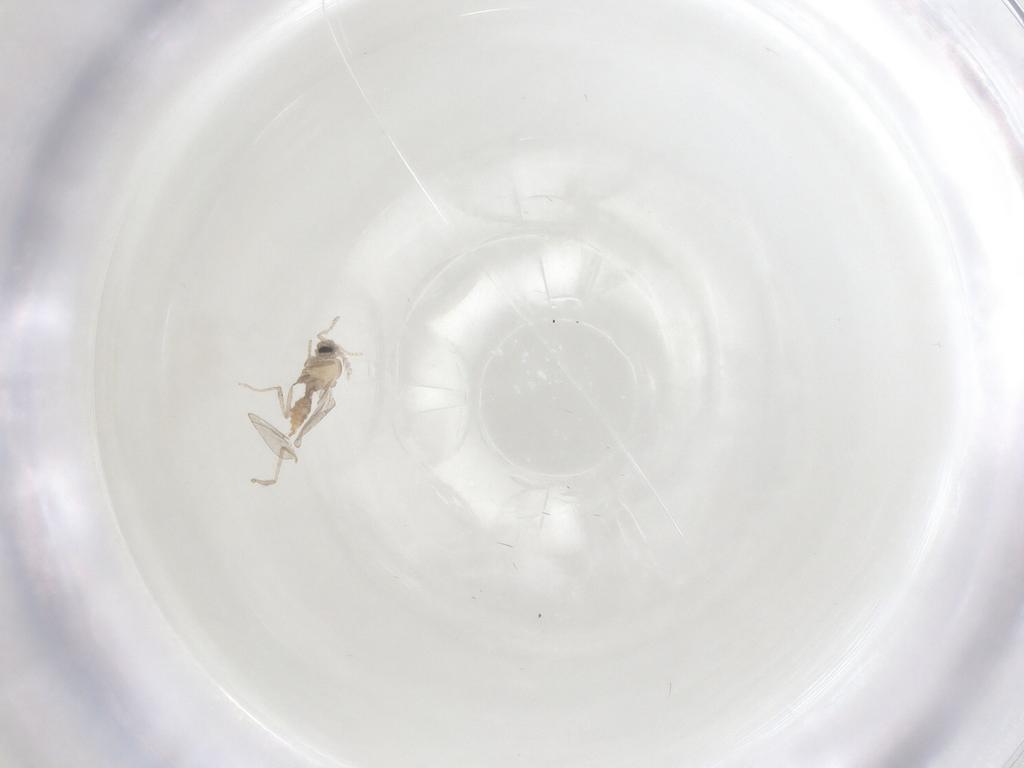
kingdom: Animalia
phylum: Arthropoda
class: Insecta
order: Diptera
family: Cecidomyiidae
